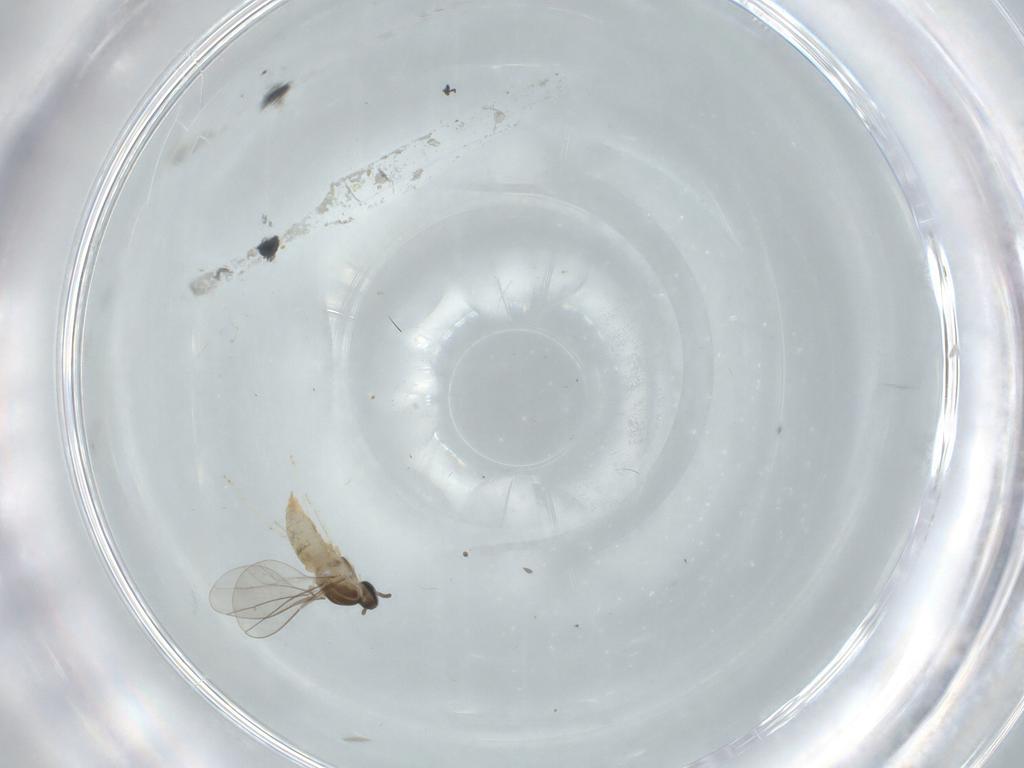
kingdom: Animalia
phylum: Arthropoda
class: Insecta
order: Diptera
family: Cecidomyiidae
